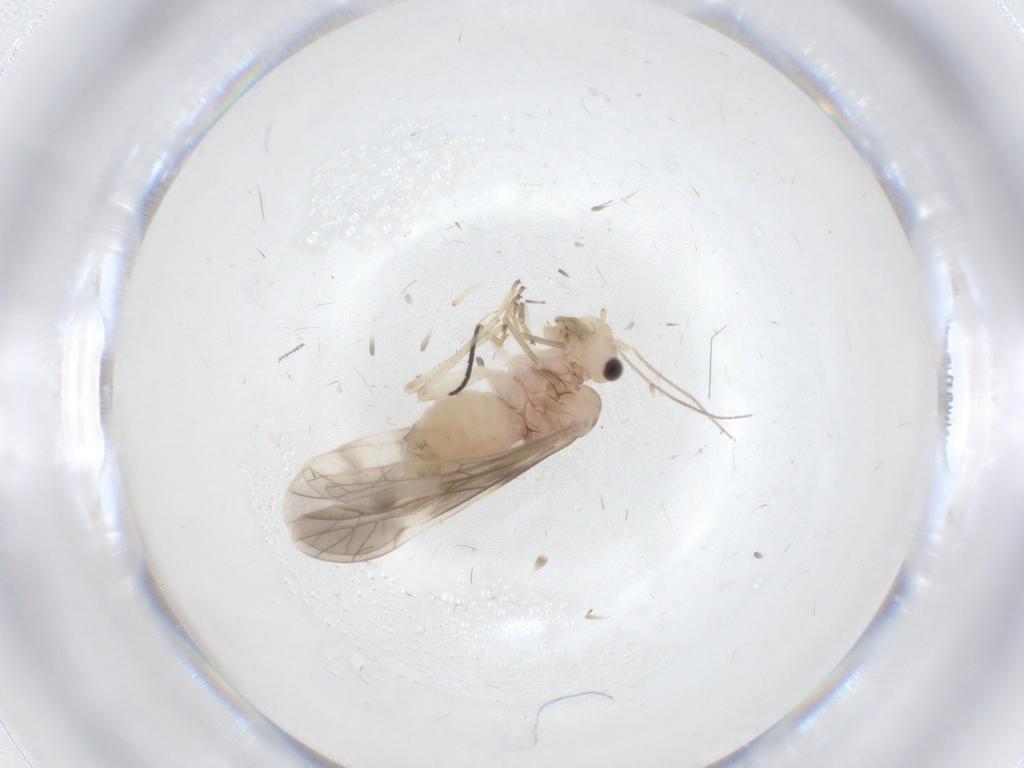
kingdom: Animalia
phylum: Arthropoda
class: Insecta
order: Psocodea
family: Caeciliusidae
